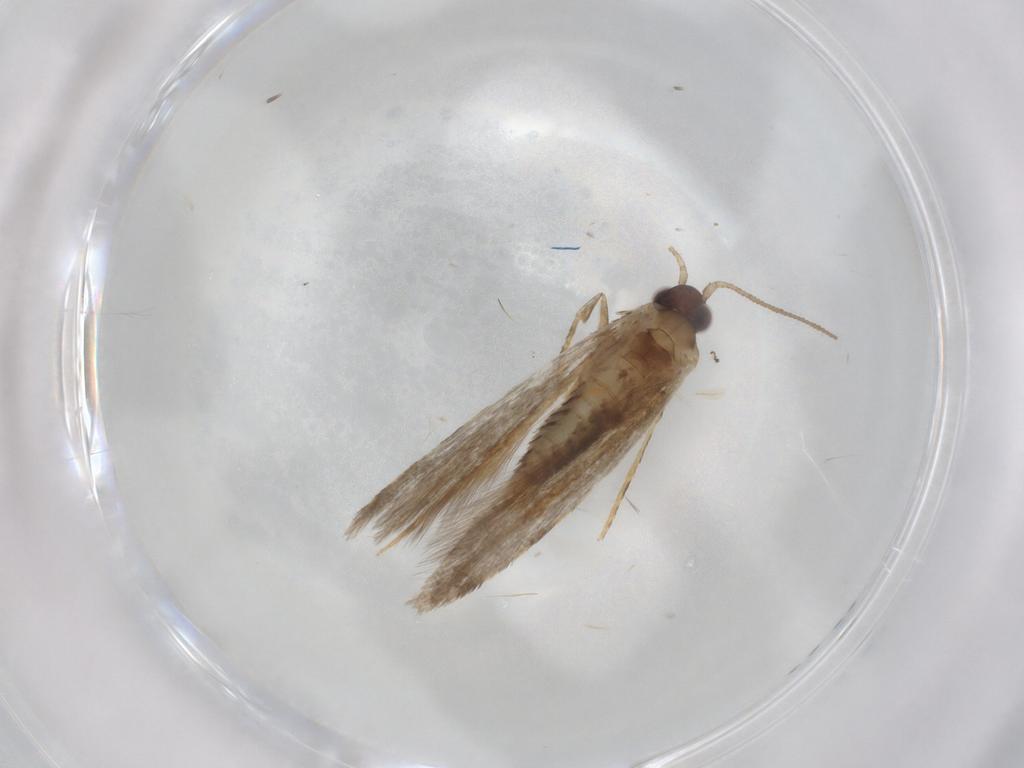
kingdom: Animalia
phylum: Arthropoda
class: Insecta
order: Lepidoptera
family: Tineidae
